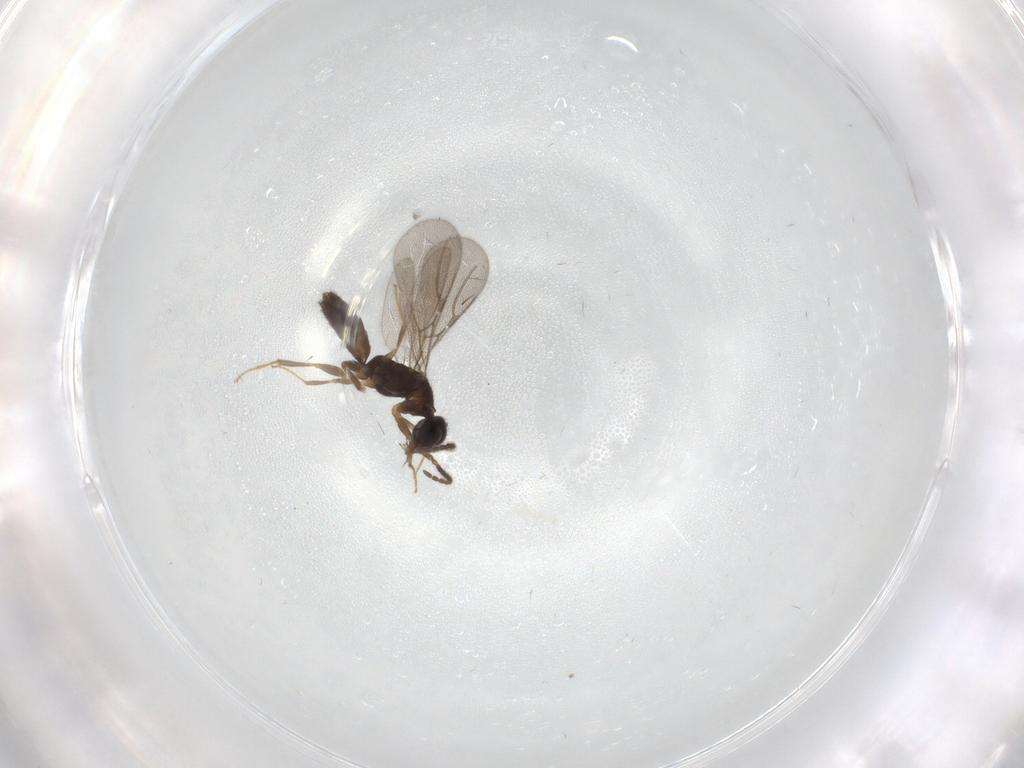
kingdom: Animalia
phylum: Arthropoda
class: Insecta
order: Hymenoptera
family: Bethylidae
